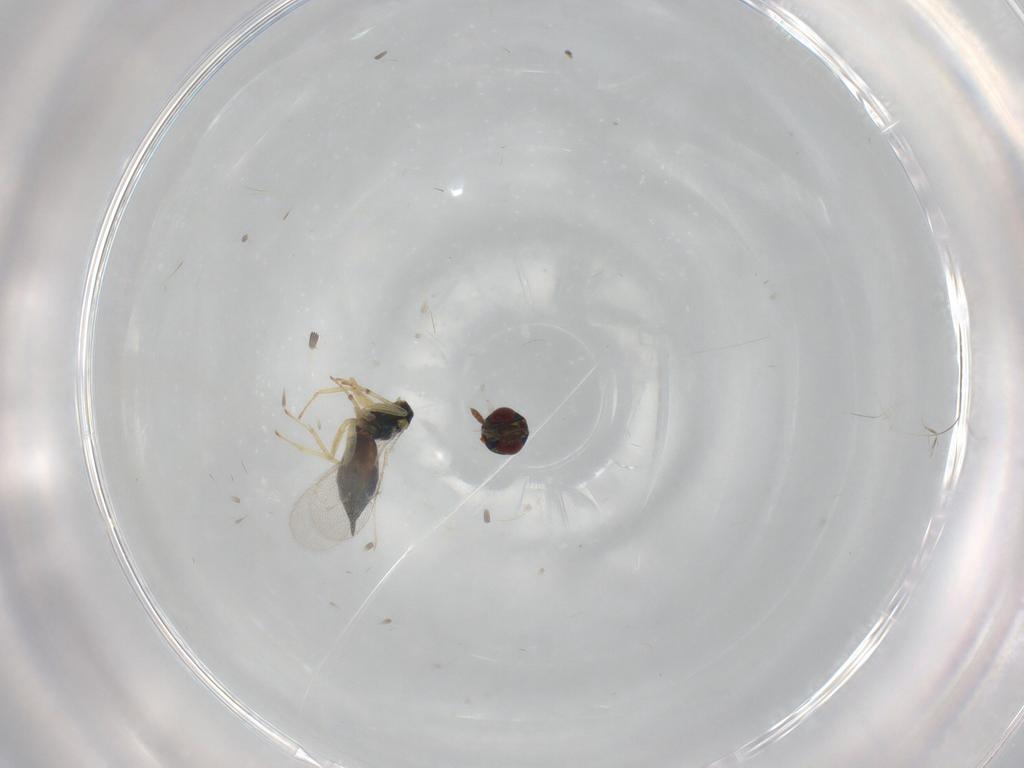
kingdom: Animalia
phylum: Arthropoda
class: Insecta
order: Hymenoptera
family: Eulophidae
